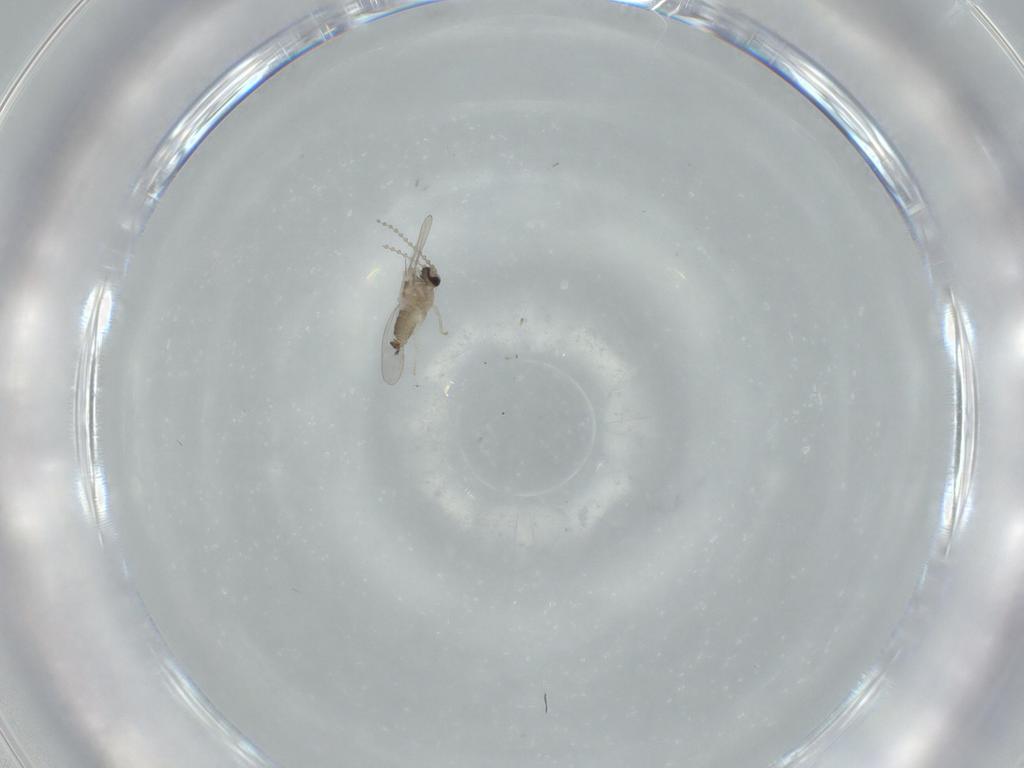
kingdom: Animalia
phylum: Arthropoda
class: Insecta
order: Diptera
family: Cecidomyiidae
